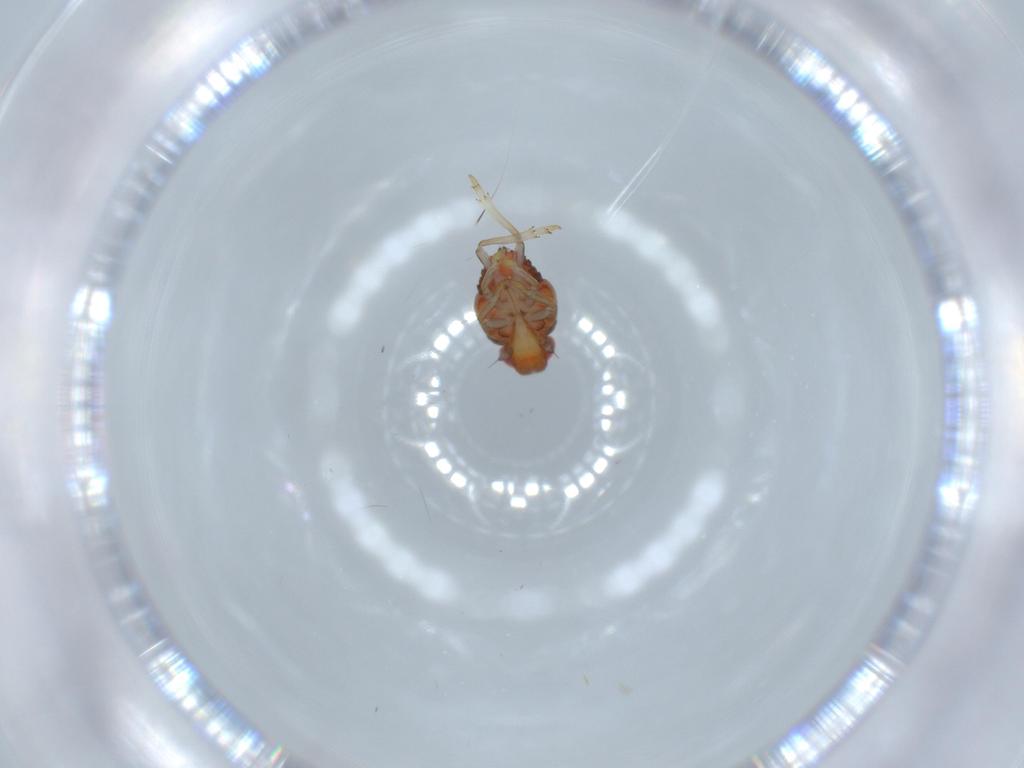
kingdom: Animalia
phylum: Arthropoda
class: Insecta
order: Hemiptera
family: Issidae
